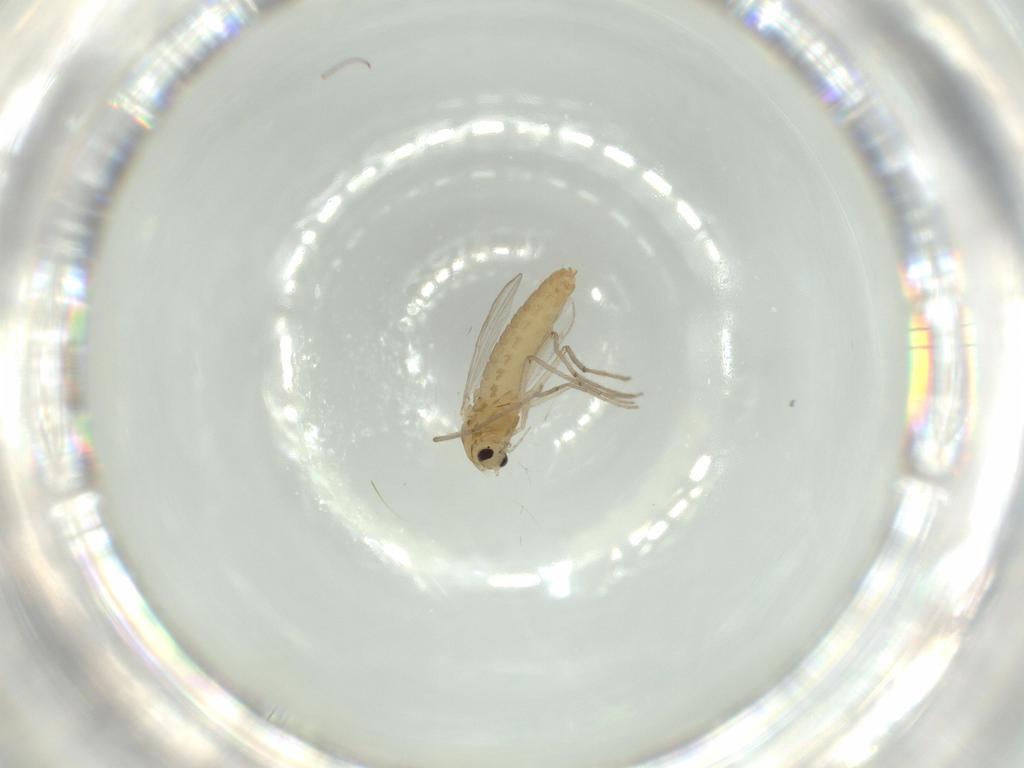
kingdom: Animalia
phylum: Arthropoda
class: Insecta
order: Diptera
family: Chironomidae
